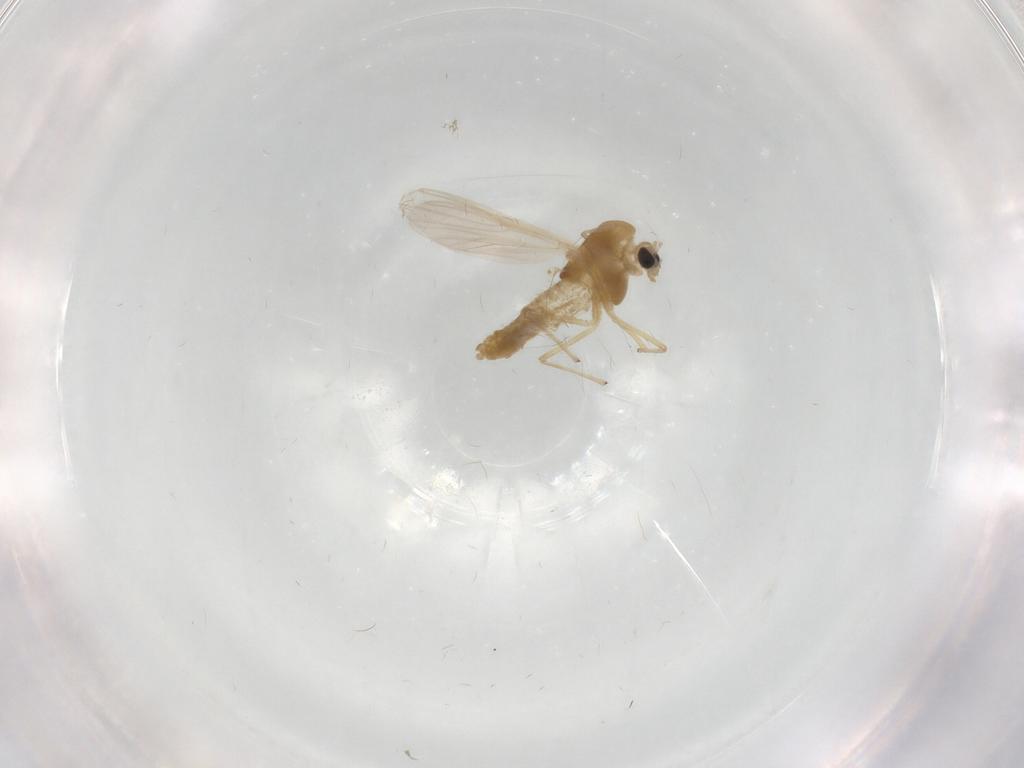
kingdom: Animalia
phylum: Arthropoda
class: Insecta
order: Diptera
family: Chironomidae
